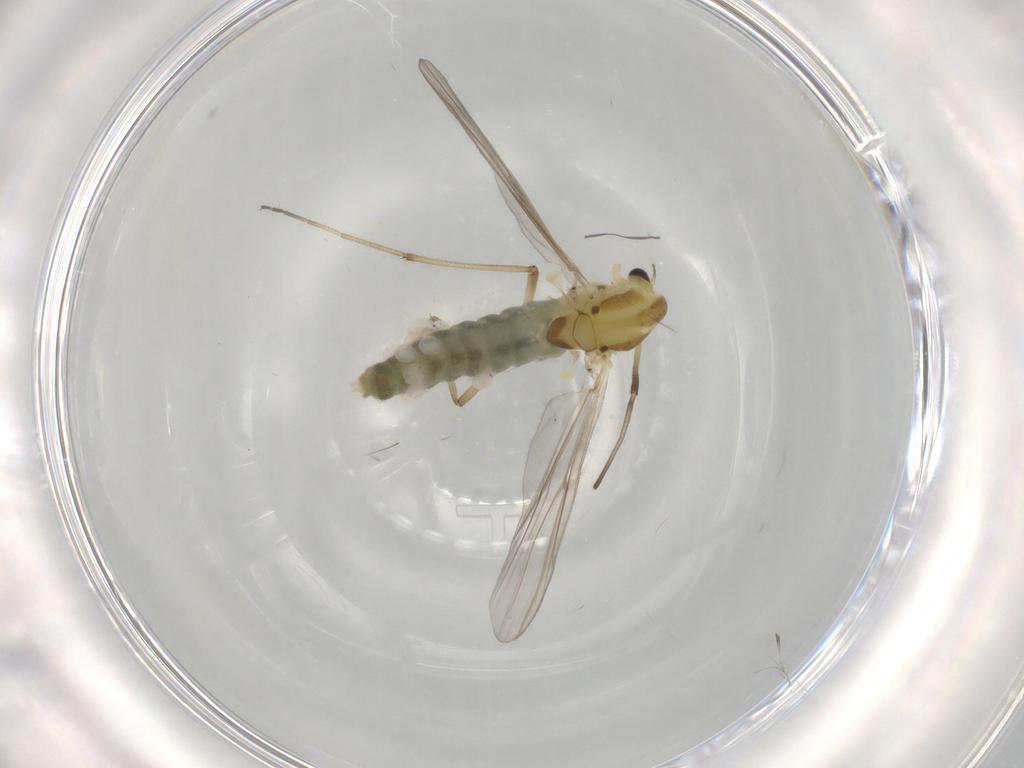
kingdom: Animalia
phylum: Arthropoda
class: Insecta
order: Diptera
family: Chironomidae
